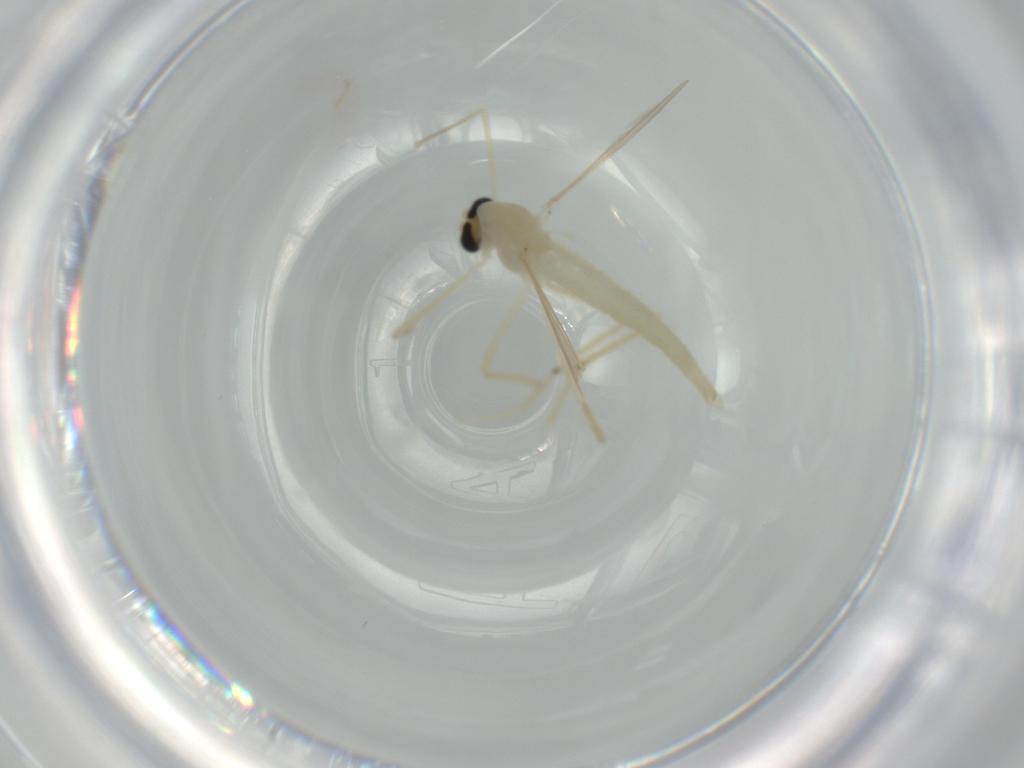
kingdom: Animalia
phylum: Arthropoda
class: Insecta
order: Diptera
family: Chironomidae
